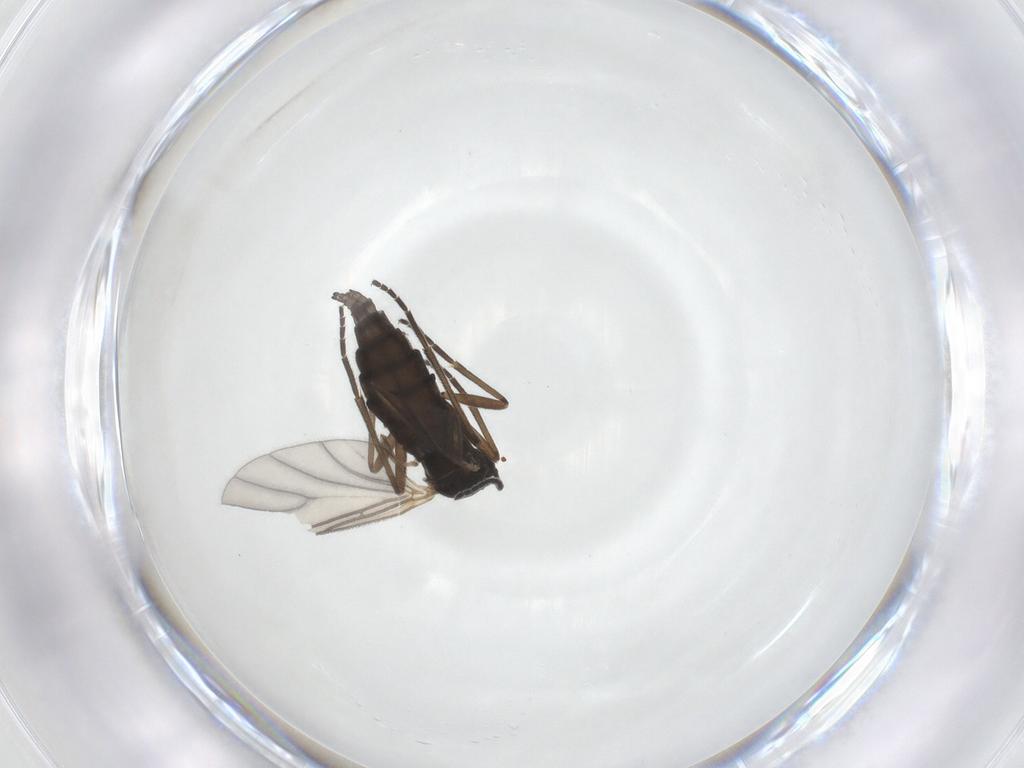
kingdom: Animalia
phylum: Arthropoda
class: Insecta
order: Diptera
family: Sciaridae
